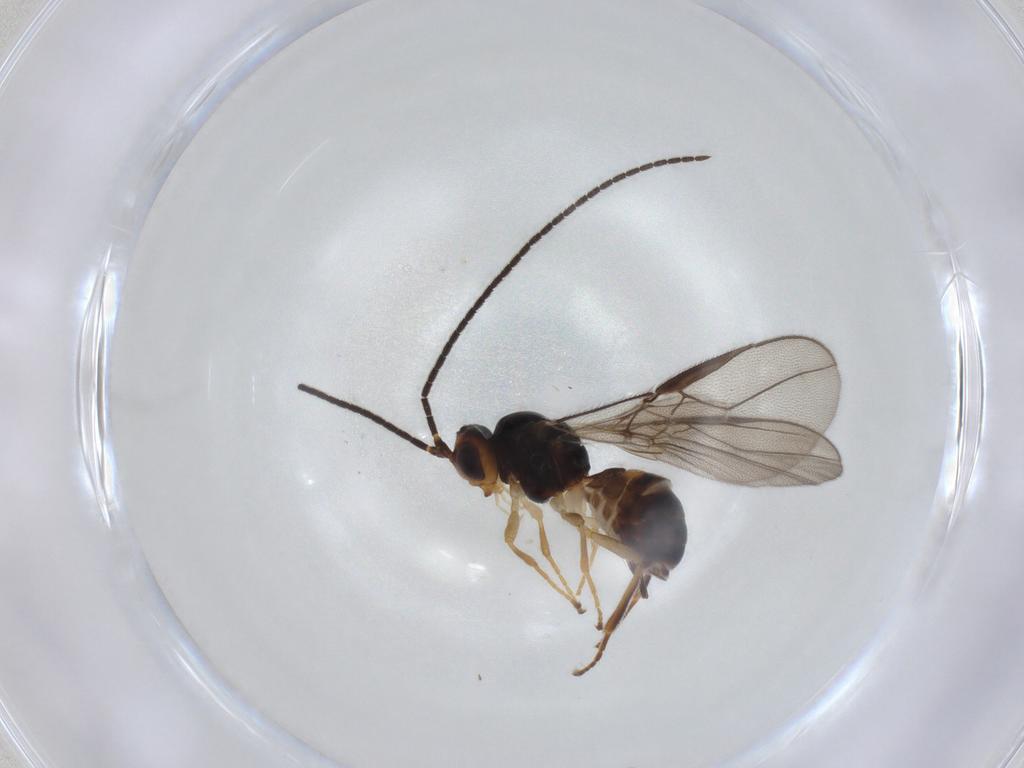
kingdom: Animalia
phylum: Arthropoda
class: Insecta
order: Hymenoptera
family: Braconidae
